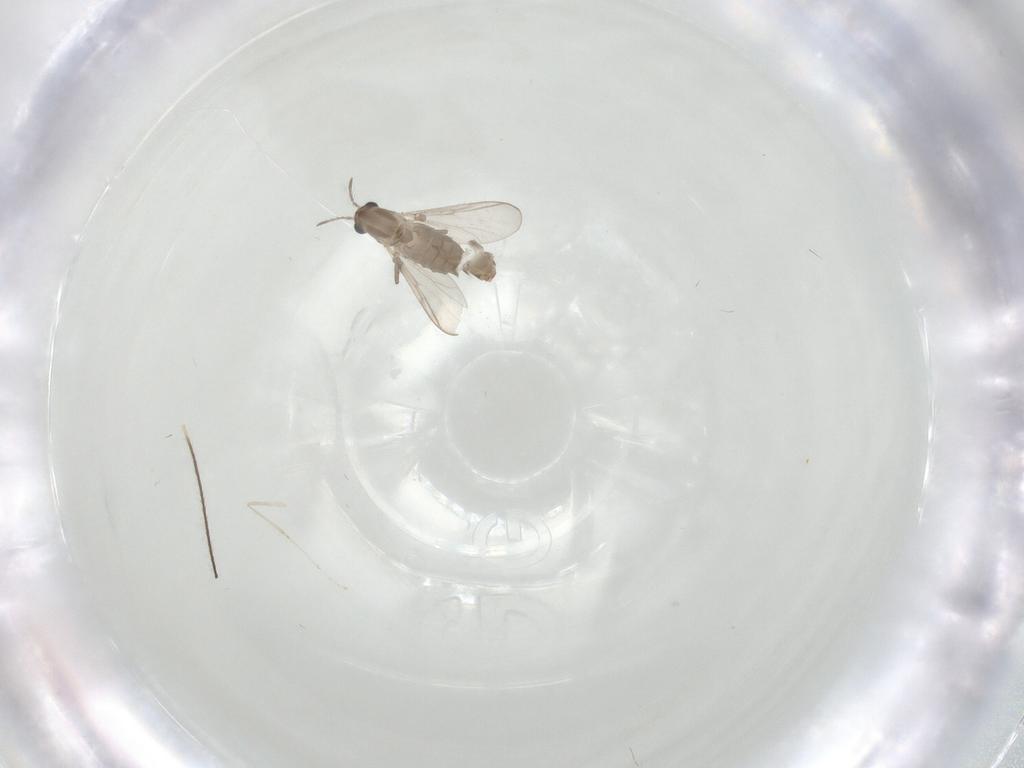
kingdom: Animalia
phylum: Arthropoda
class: Insecta
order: Diptera
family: Chironomidae
